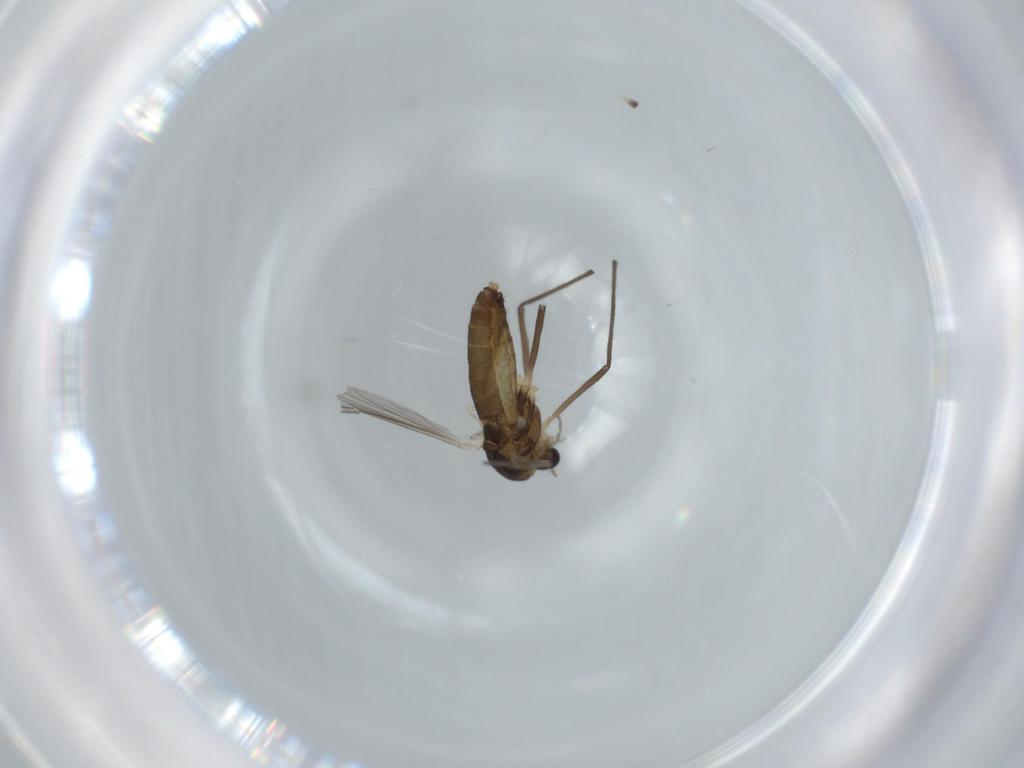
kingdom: Animalia
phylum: Arthropoda
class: Insecta
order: Diptera
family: Chironomidae
